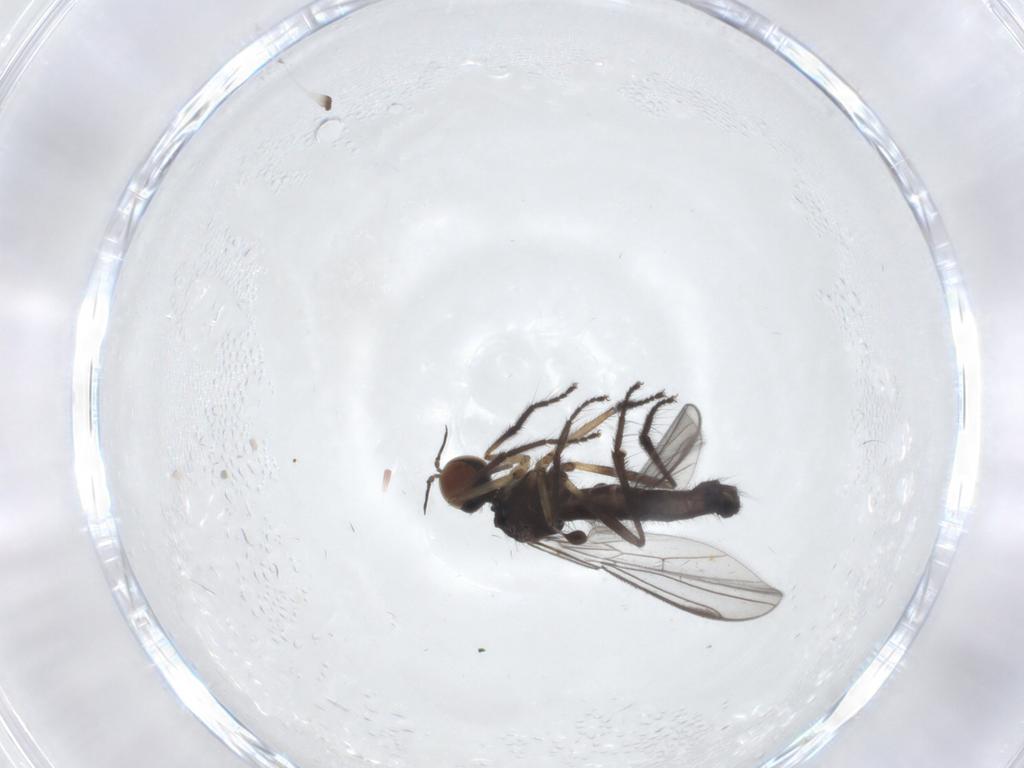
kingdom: Animalia
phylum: Arthropoda
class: Insecta
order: Diptera
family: Empididae
